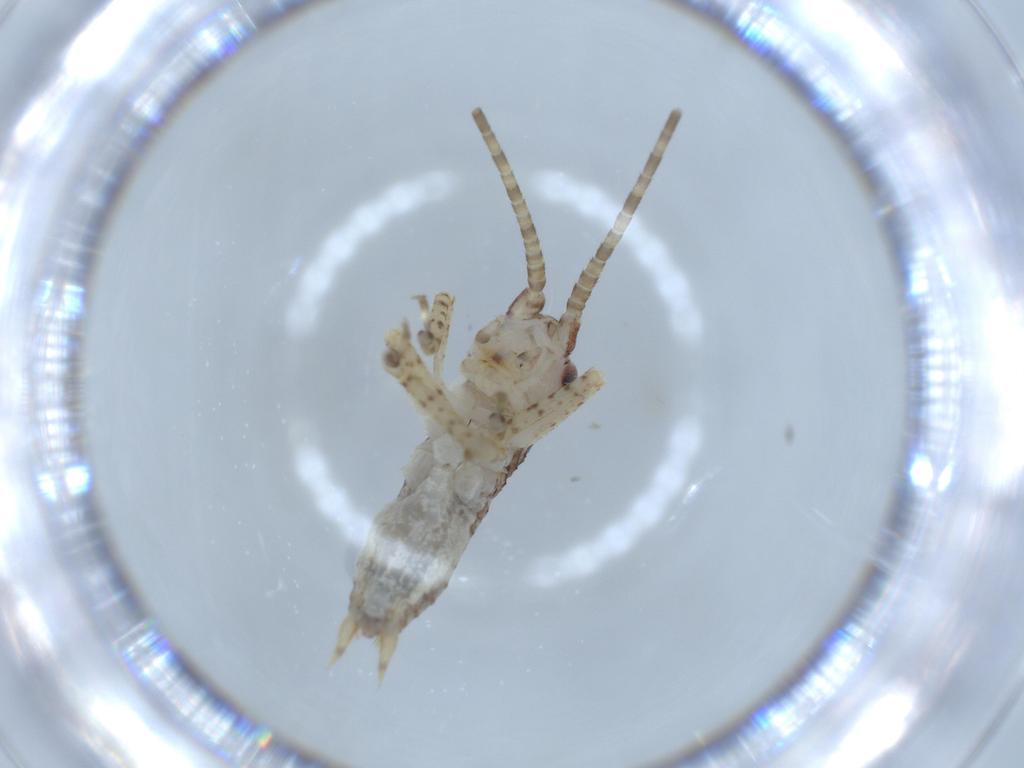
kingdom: Animalia
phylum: Arthropoda
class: Insecta
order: Orthoptera
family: Gryllidae
